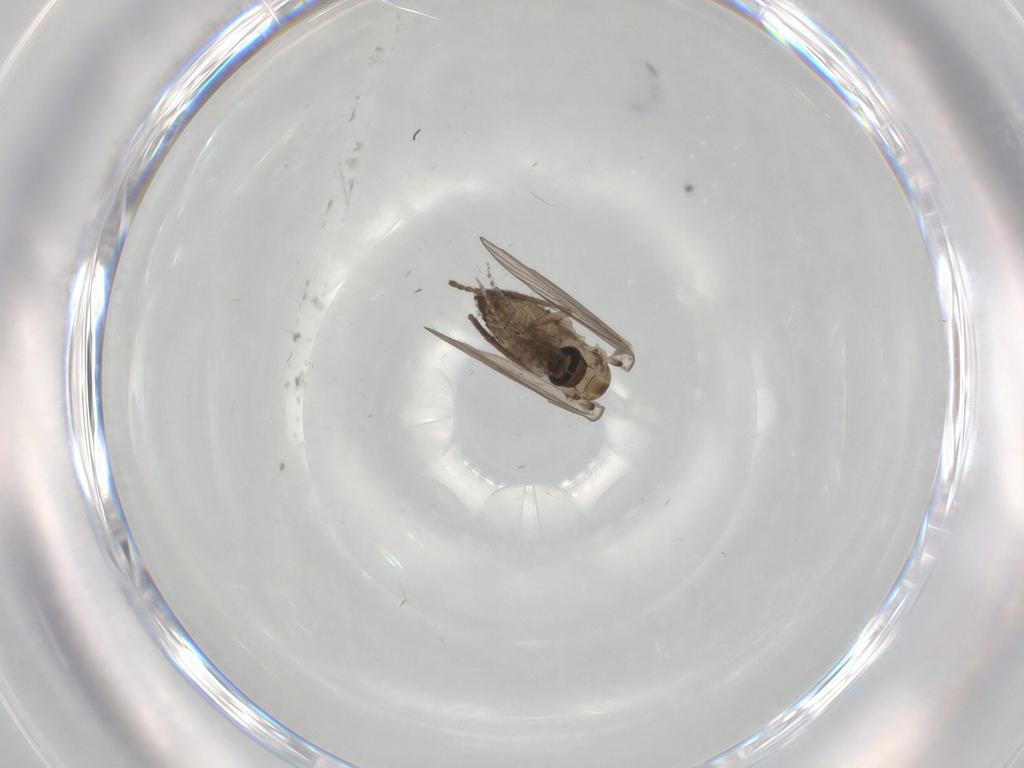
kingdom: Animalia
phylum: Arthropoda
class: Insecta
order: Diptera
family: Psychodidae
